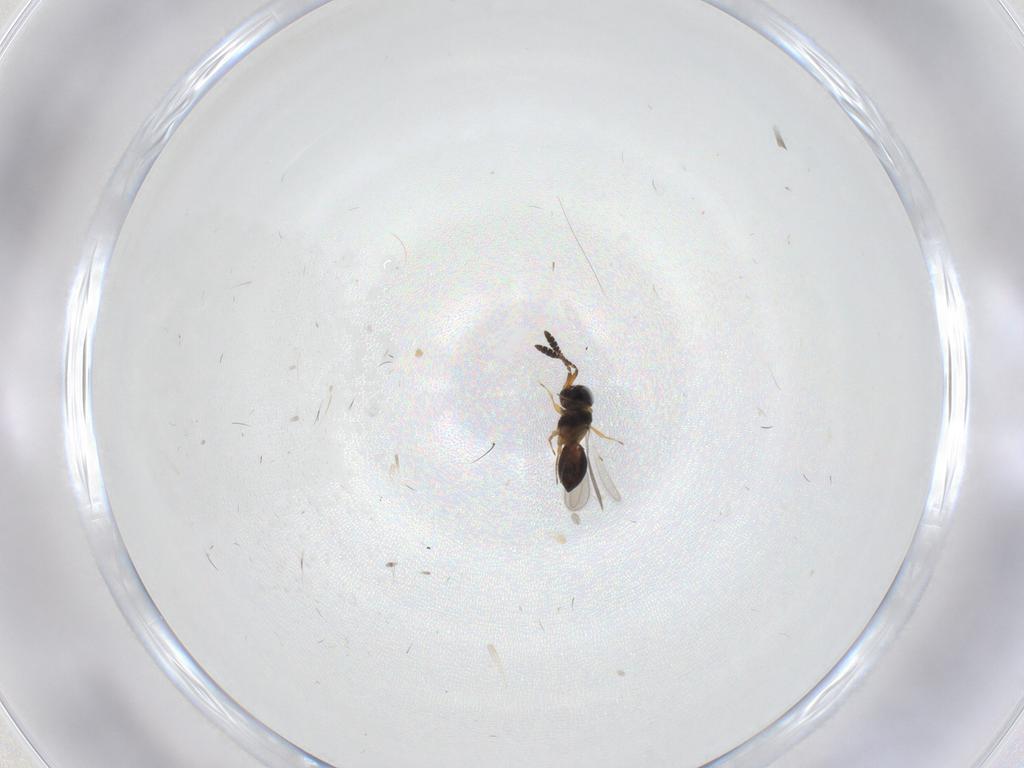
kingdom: Animalia
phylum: Arthropoda
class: Insecta
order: Hymenoptera
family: Scelionidae
